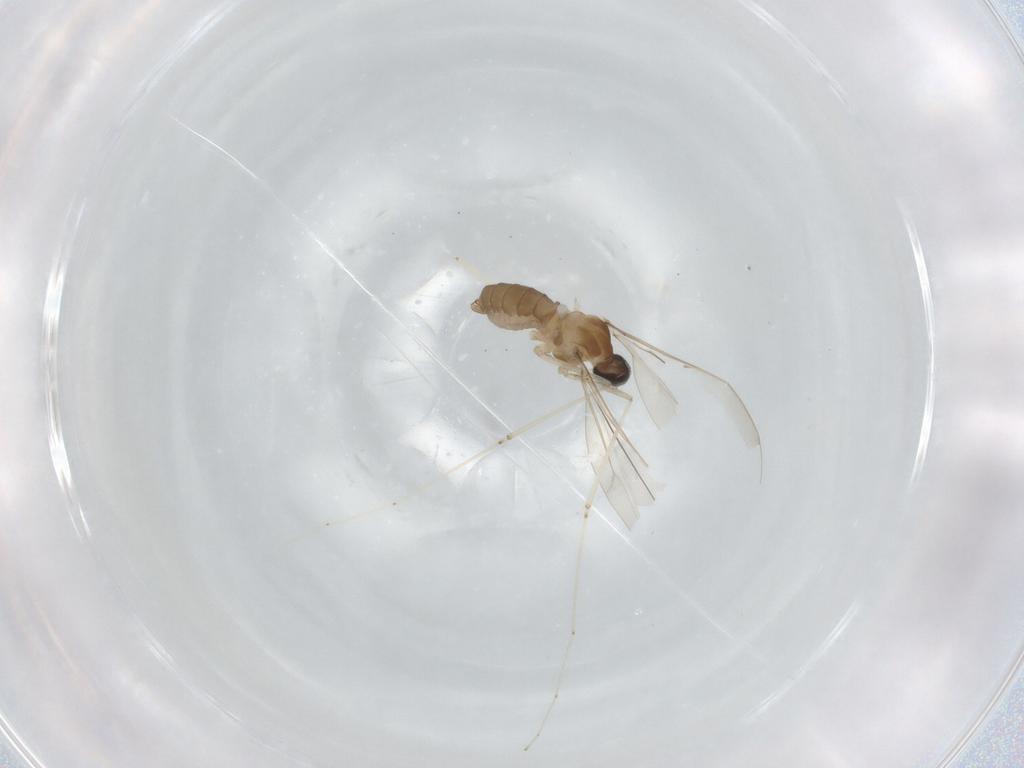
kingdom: Animalia
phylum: Arthropoda
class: Insecta
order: Diptera
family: Cecidomyiidae
